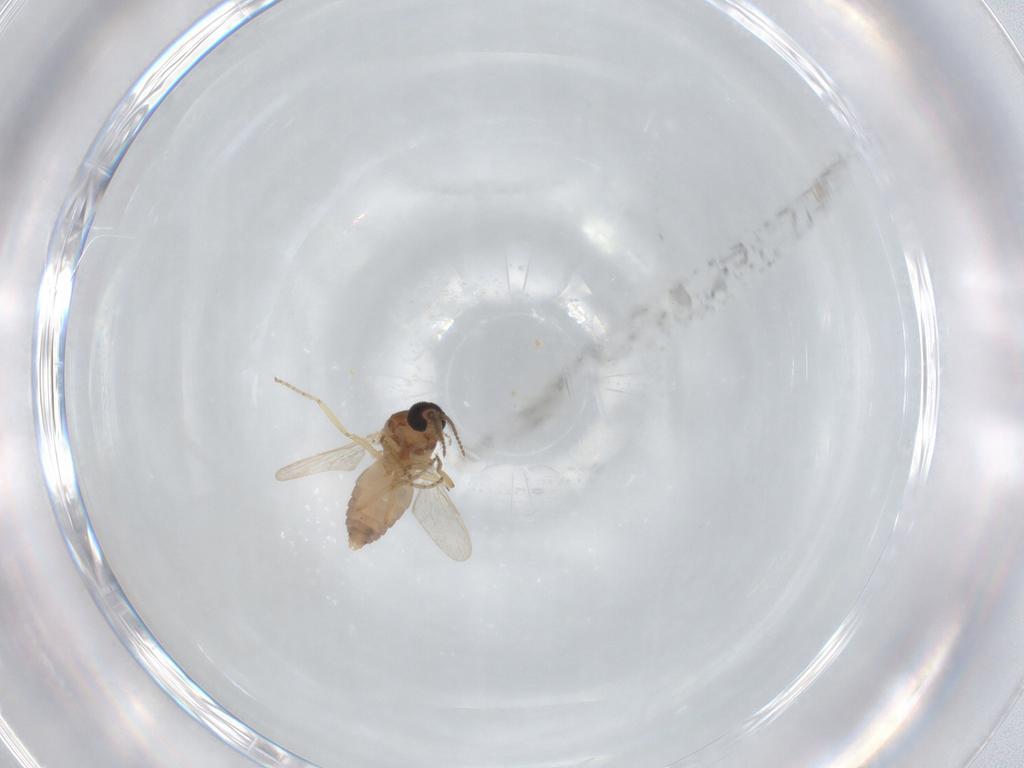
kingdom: Animalia
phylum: Arthropoda
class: Insecta
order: Diptera
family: Ceratopogonidae
